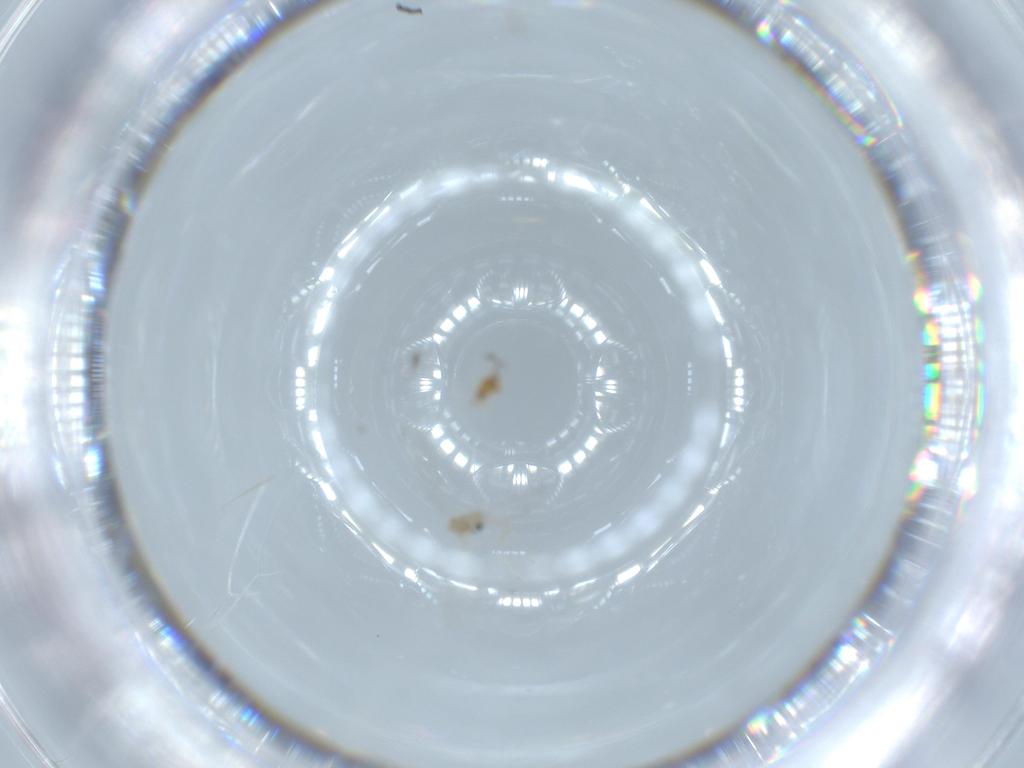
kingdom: Animalia
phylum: Arthropoda
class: Insecta
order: Diptera
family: Cecidomyiidae
